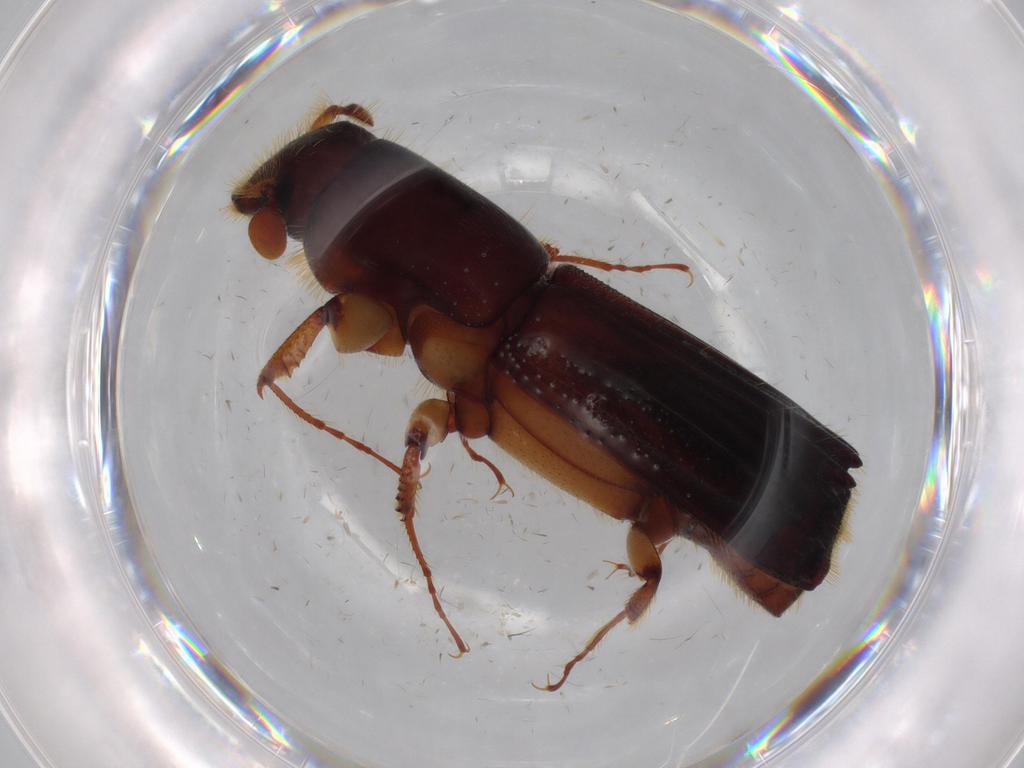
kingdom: Animalia
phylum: Arthropoda
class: Insecta
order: Coleoptera
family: Curculionidae
